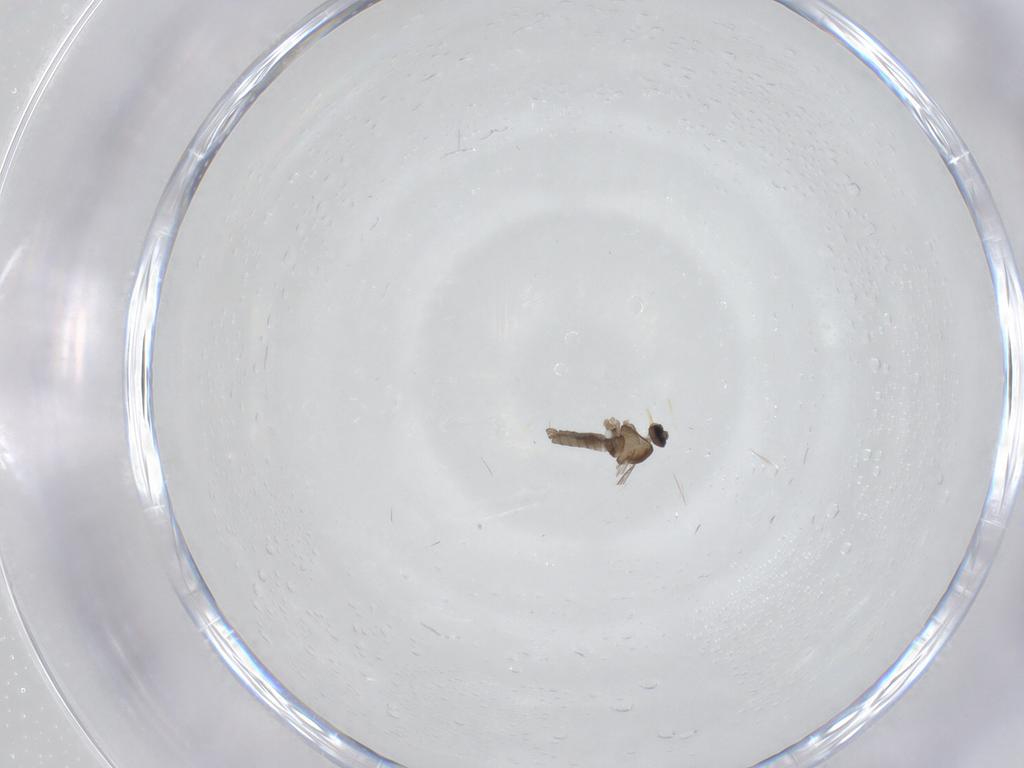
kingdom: Animalia
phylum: Arthropoda
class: Insecta
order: Diptera
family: Cecidomyiidae
